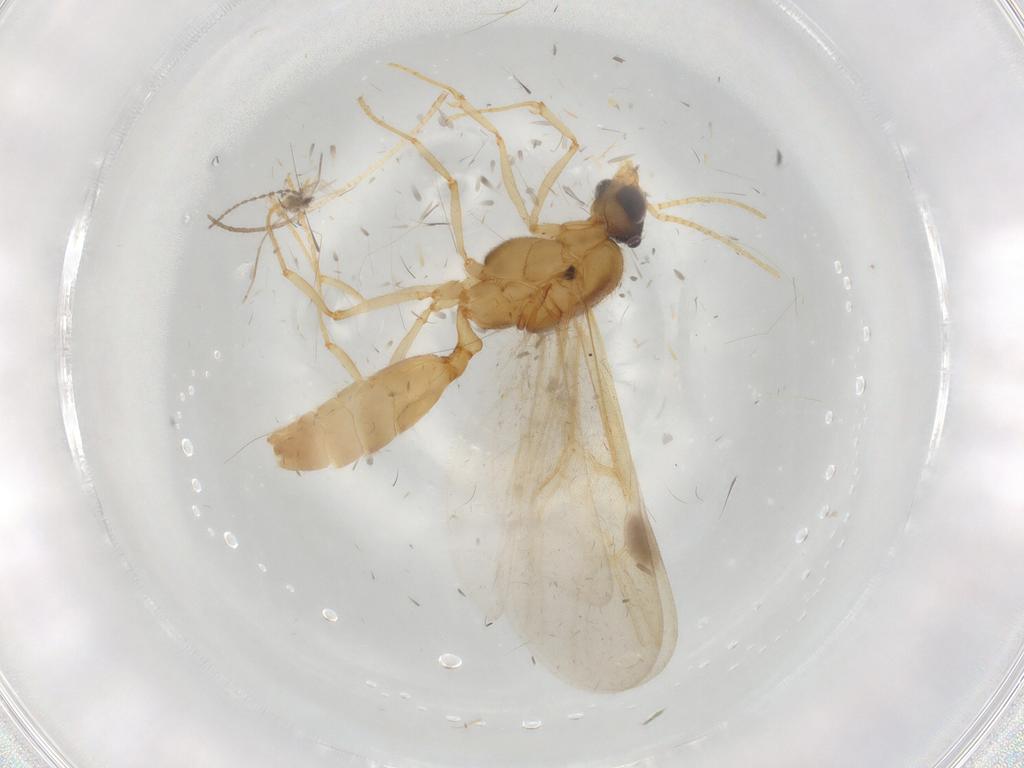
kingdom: Animalia
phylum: Arthropoda
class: Insecta
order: Hymenoptera
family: Formicidae
